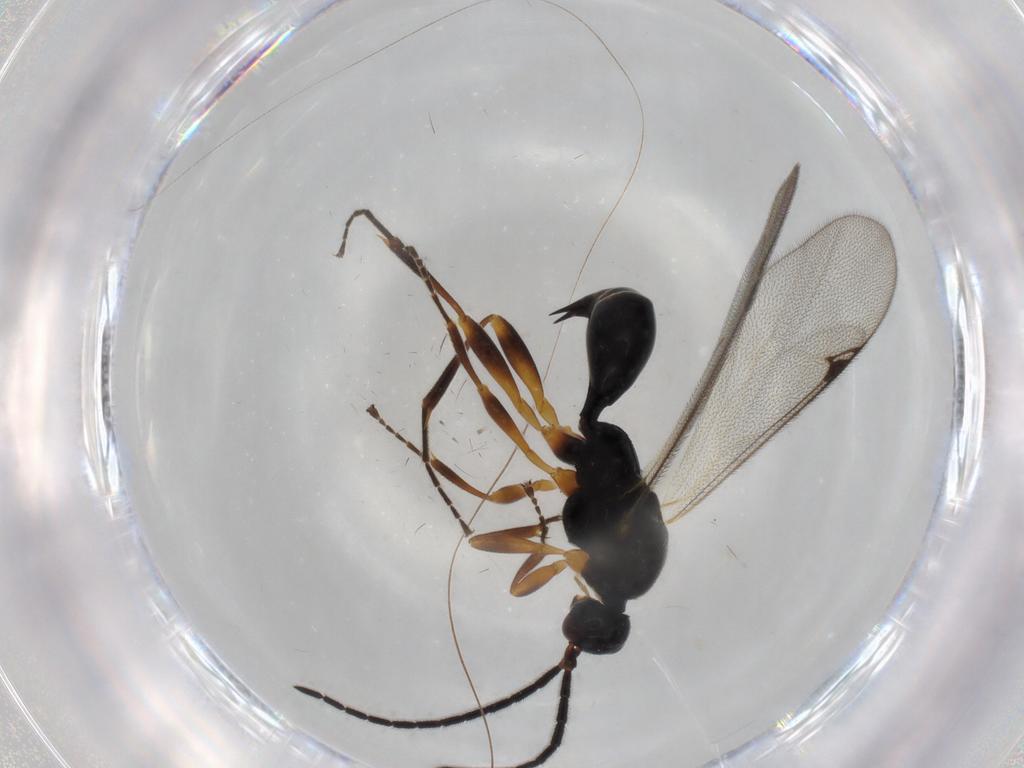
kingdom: Animalia
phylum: Arthropoda
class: Insecta
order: Hymenoptera
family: Proctotrupidae
